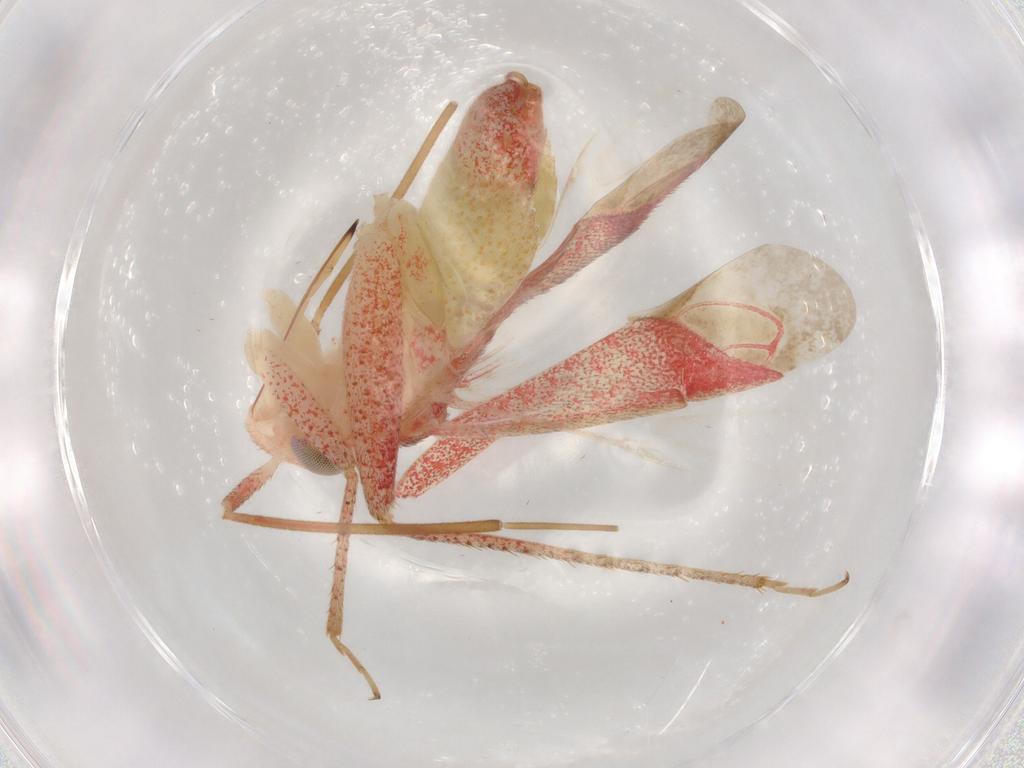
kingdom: Animalia
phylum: Arthropoda
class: Insecta
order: Hemiptera
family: Miridae
